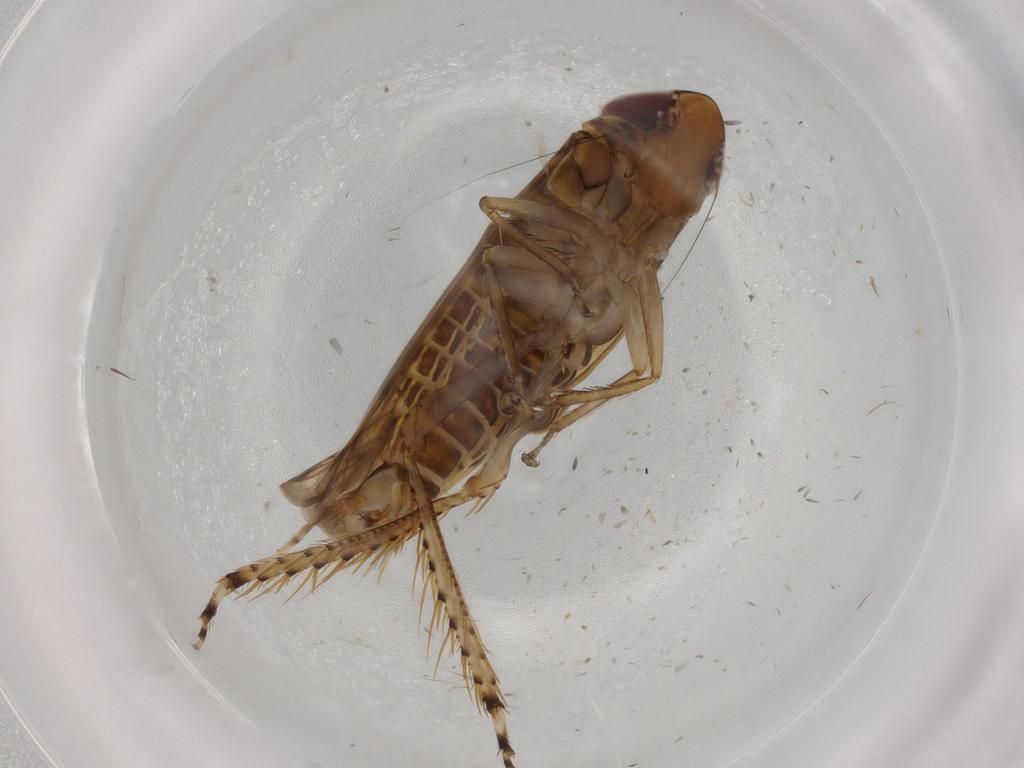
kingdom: Animalia
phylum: Arthropoda
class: Insecta
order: Hemiptera
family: Cicadellidae
